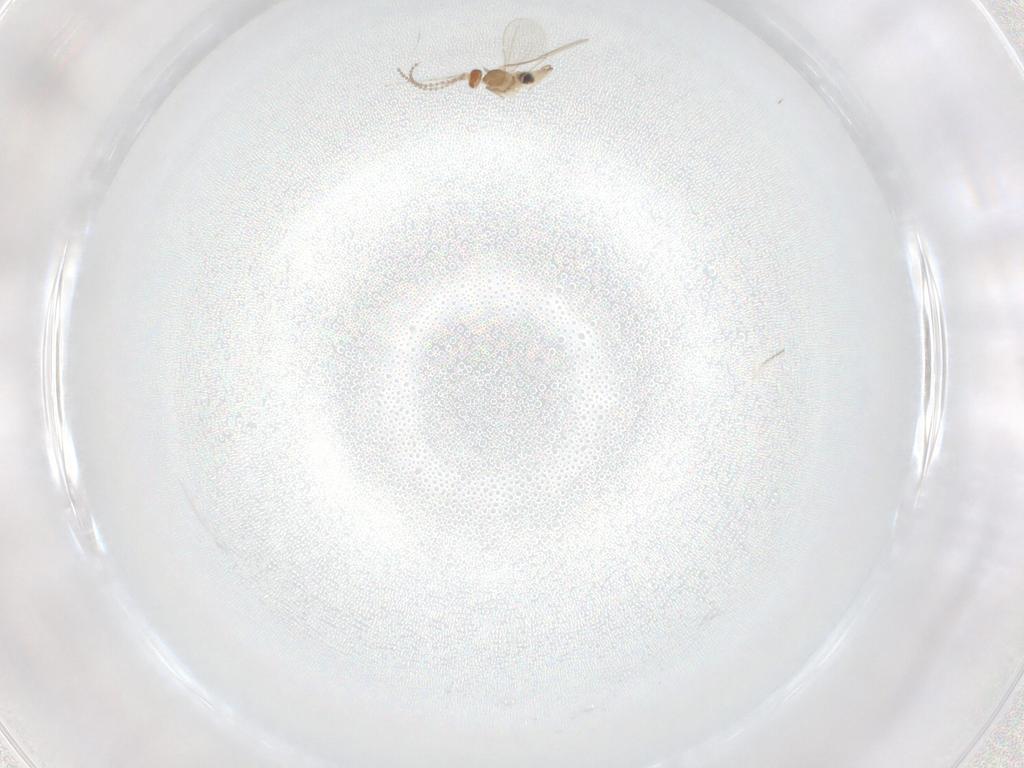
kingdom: Animalia
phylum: Arthropoda
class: Insecta
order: Diptera
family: Cecidomyiidae
